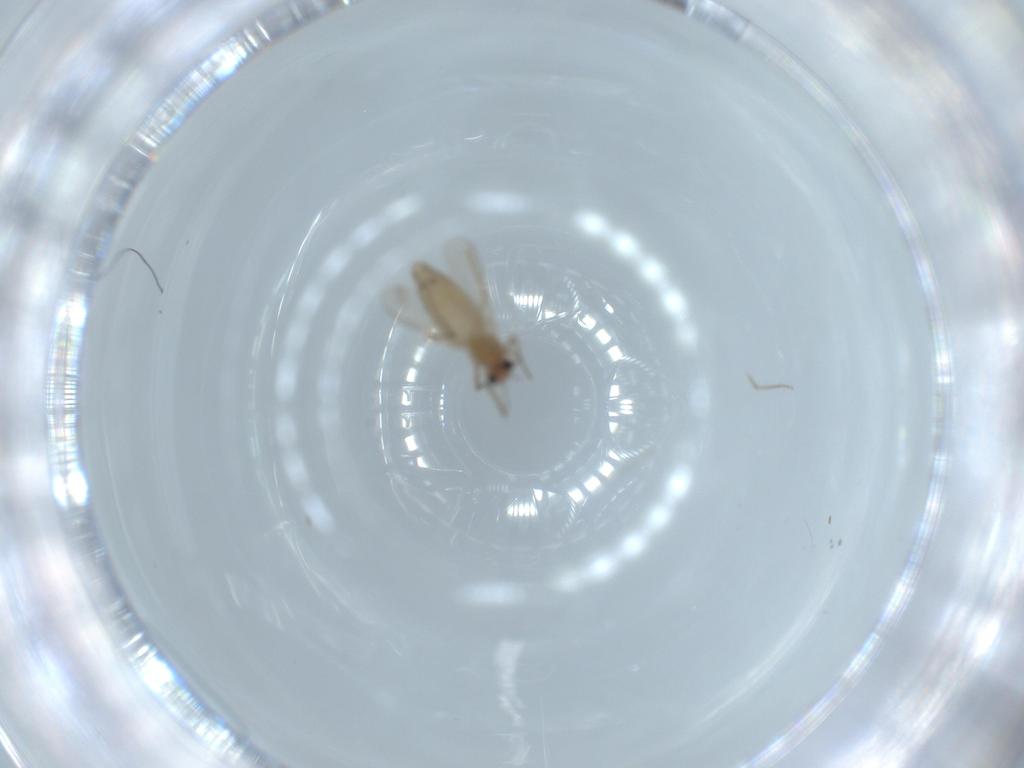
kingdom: Animalia
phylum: Arthropoda
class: Insecta
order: Diptera
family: Chironomidae
